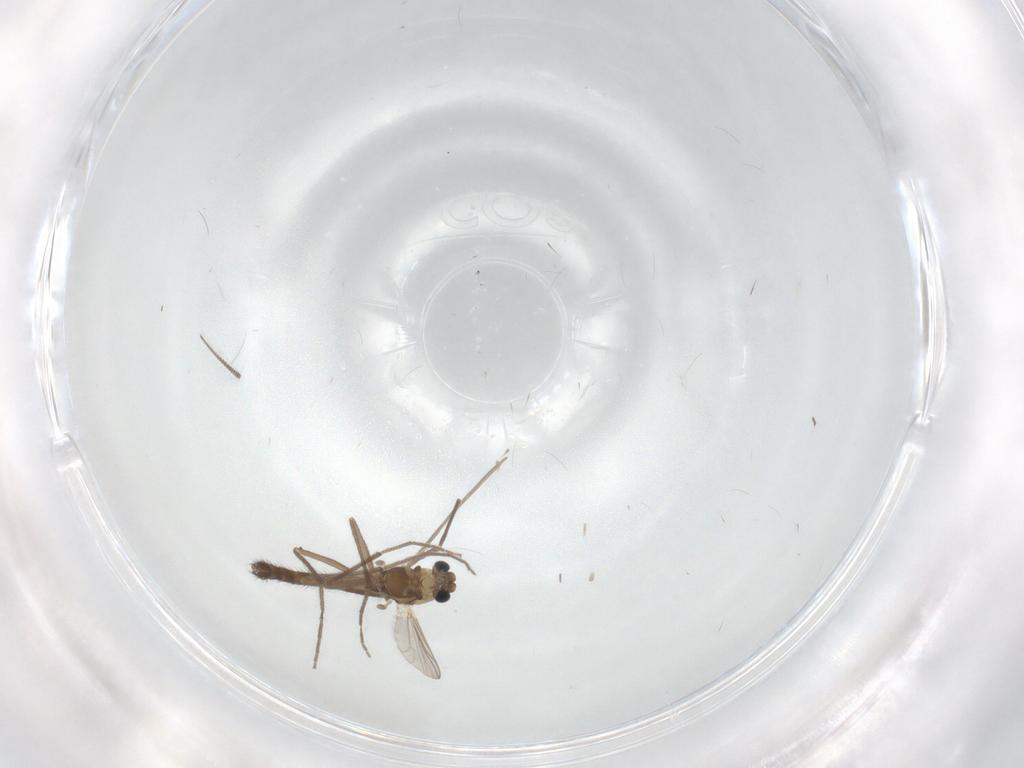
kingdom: Animalia
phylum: Arthropoda
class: Insecta
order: Diptera
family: Chironomidae
